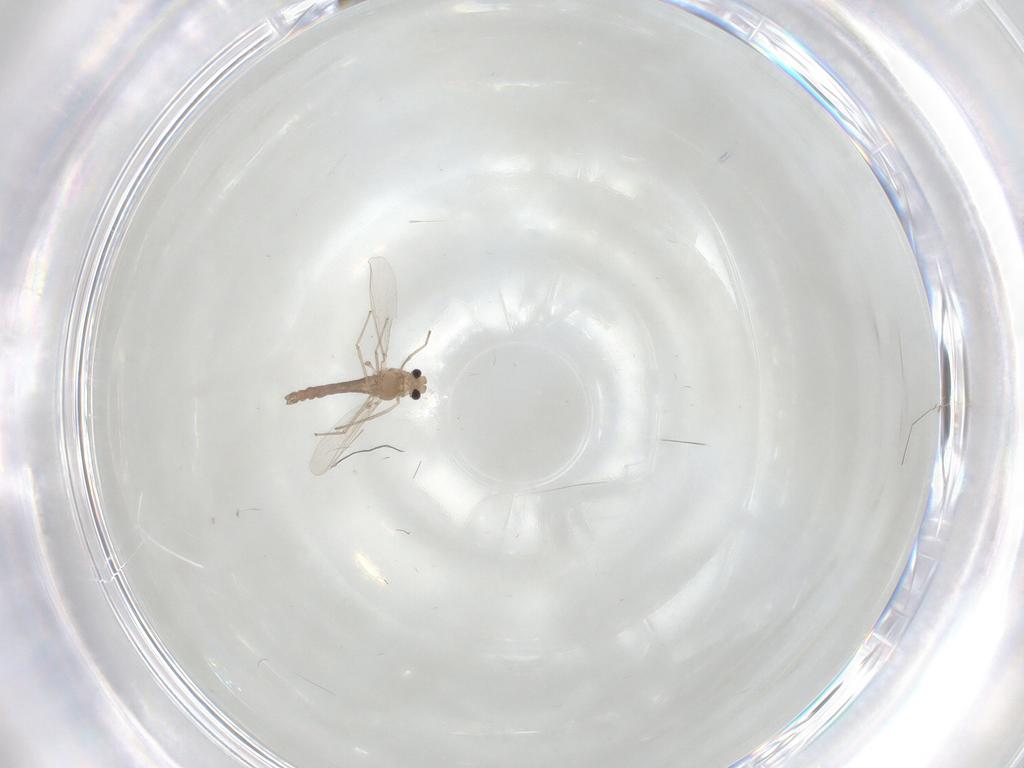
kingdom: Animalia
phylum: Arthropoda
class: Insecta
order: Diptera
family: Chironomidae
